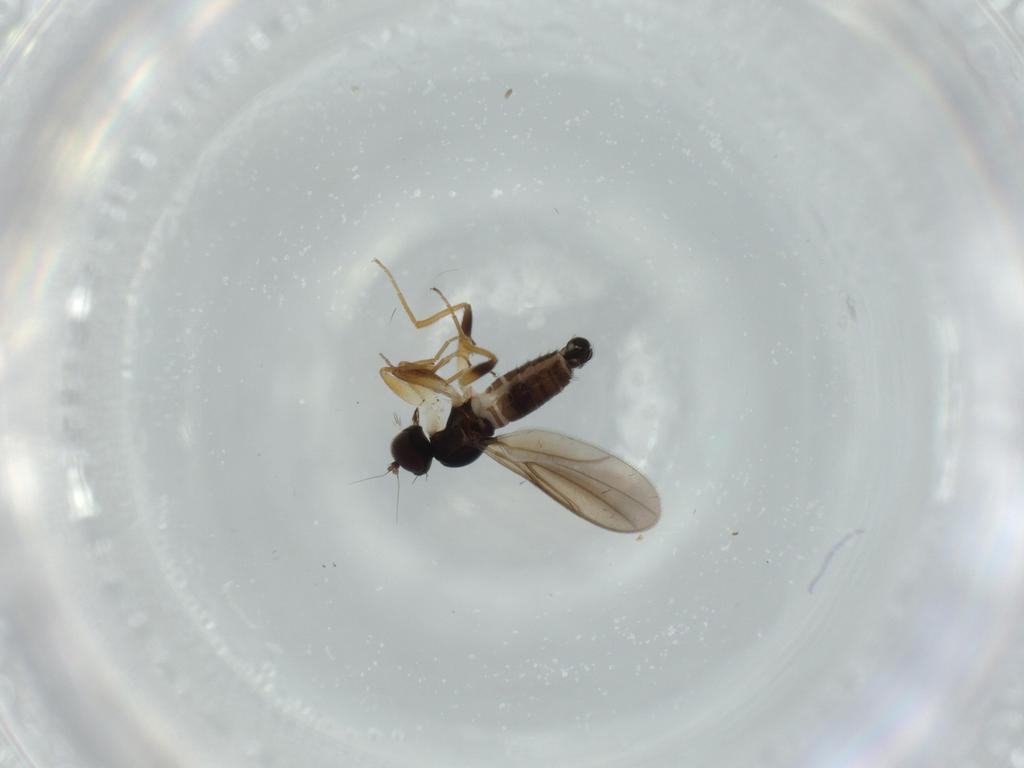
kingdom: Animalia
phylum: Arthropoda
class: Insecta
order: Diptera
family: Hybotidae
